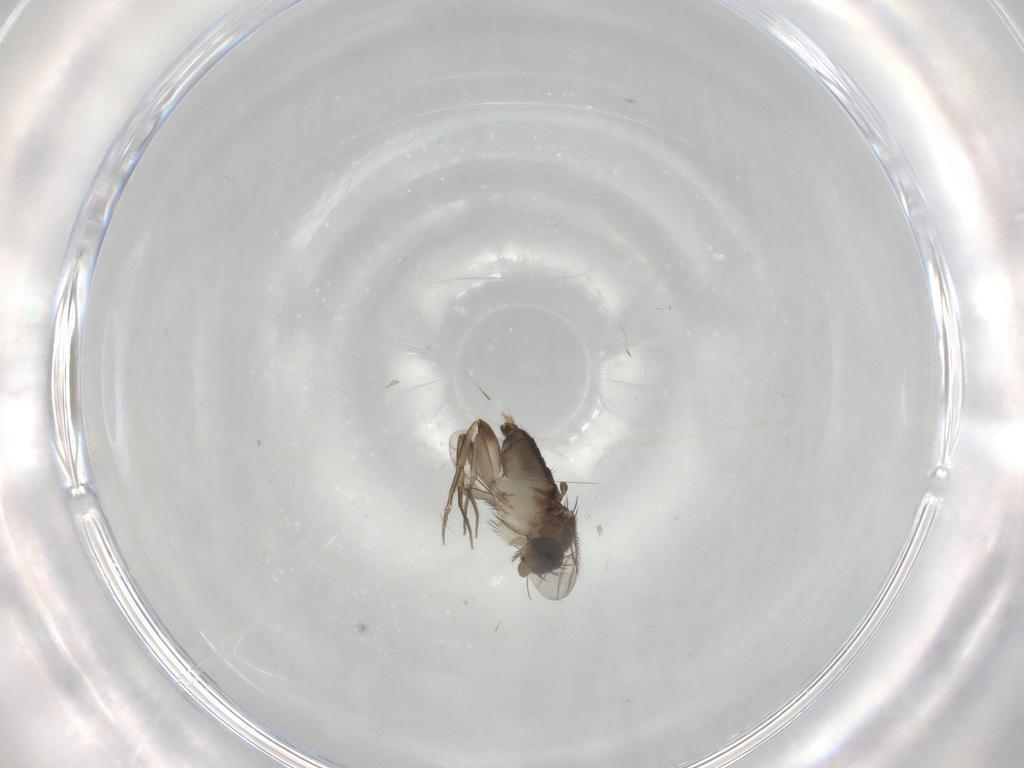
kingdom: Animalia
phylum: Arthropoda
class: Insecta
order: Diptera
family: Phoridae
